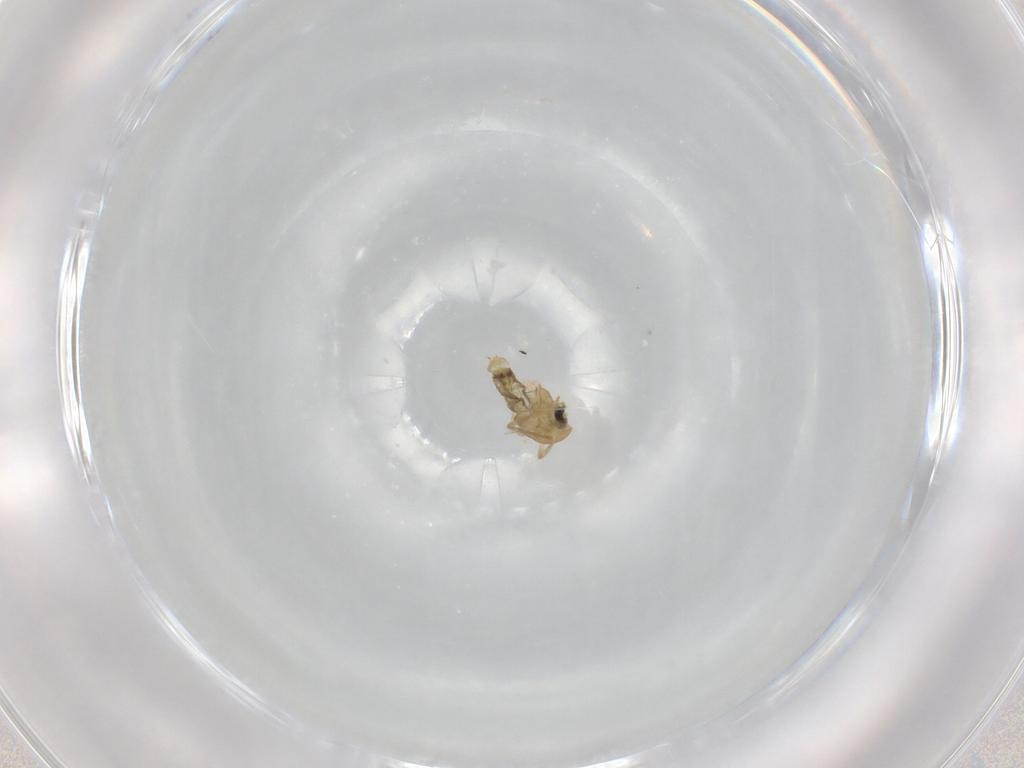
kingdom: Animalia
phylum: Arthropoda
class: Insecta
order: Diptera
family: Chironomidae
